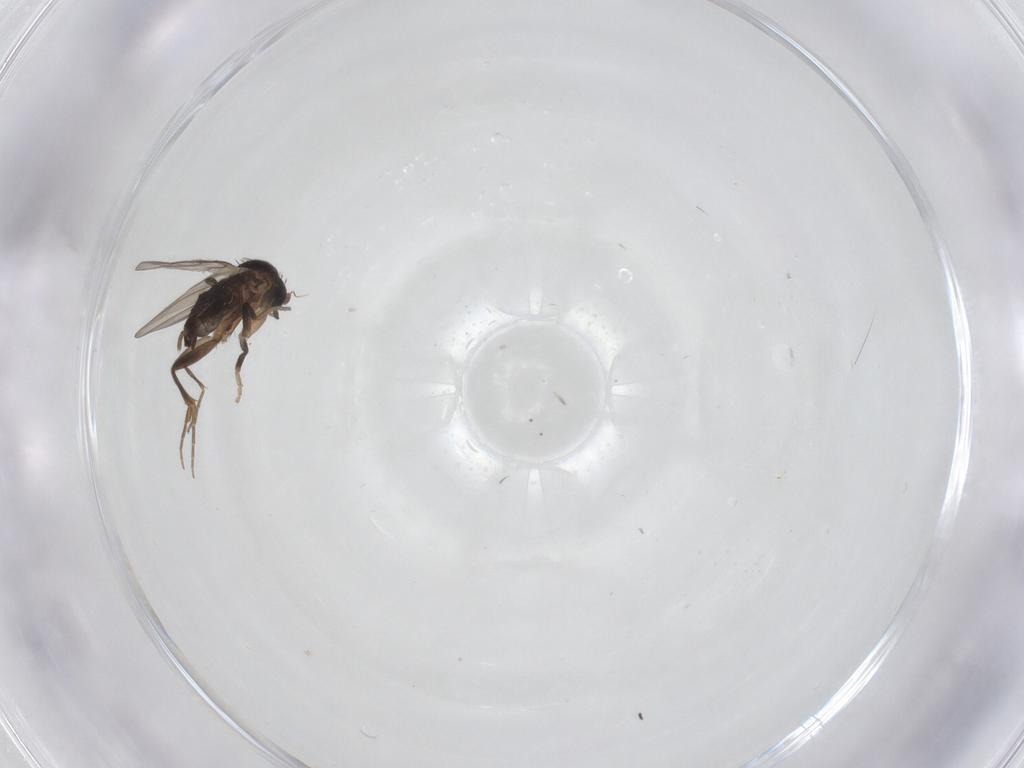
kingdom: Animalia
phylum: Arthropoda
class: Insecta
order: Diptera
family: Phoridae
